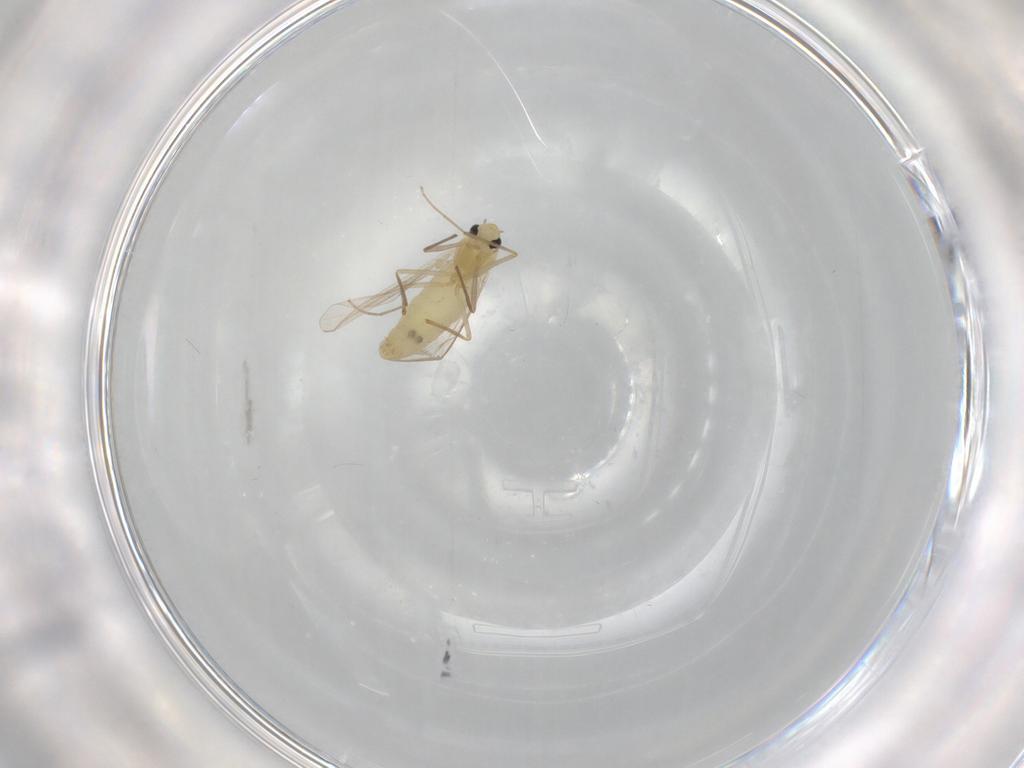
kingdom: Animalia
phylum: Arthropoda
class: Insecta
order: Diptera
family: Chironomidae
